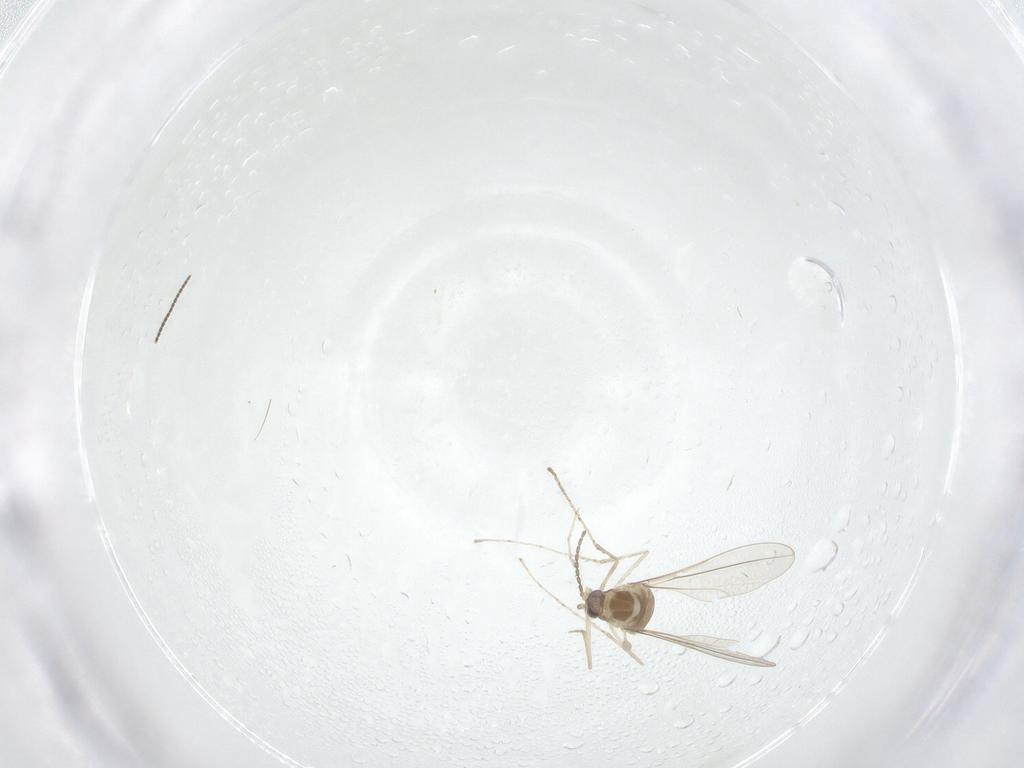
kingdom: Animalia
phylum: Arthropoda
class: Insecta
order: Diptera
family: Cecidomyiidae
